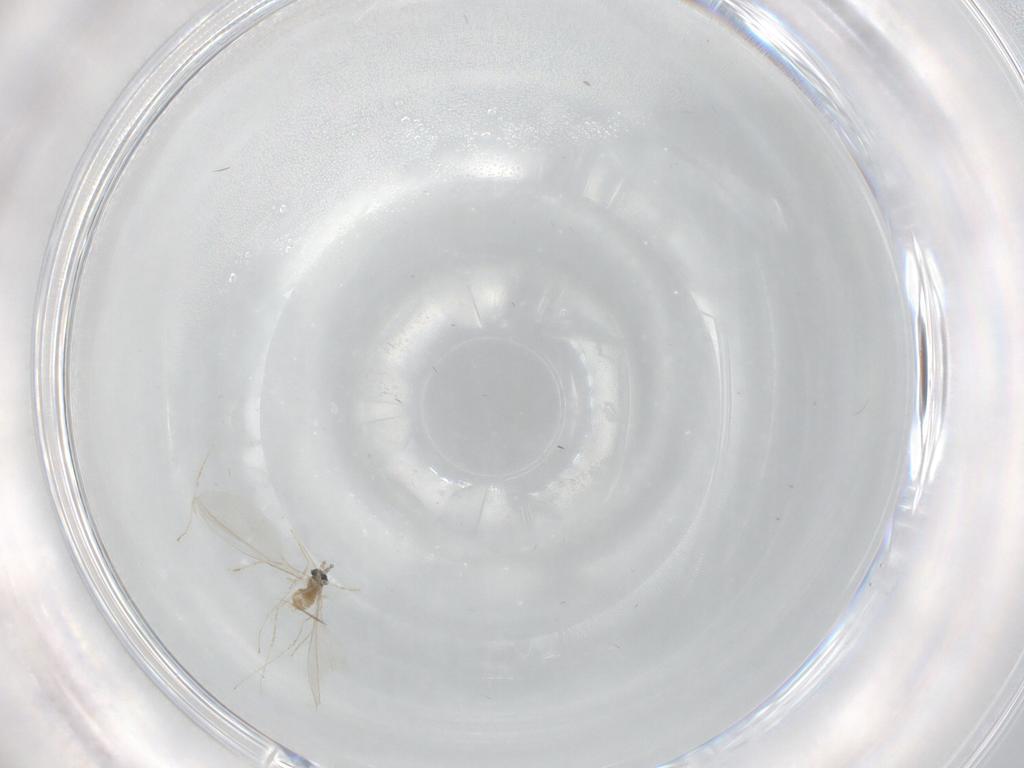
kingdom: Animalia
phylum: Arthropoda
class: Insecta
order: Diptera
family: Cecidomyiidae
